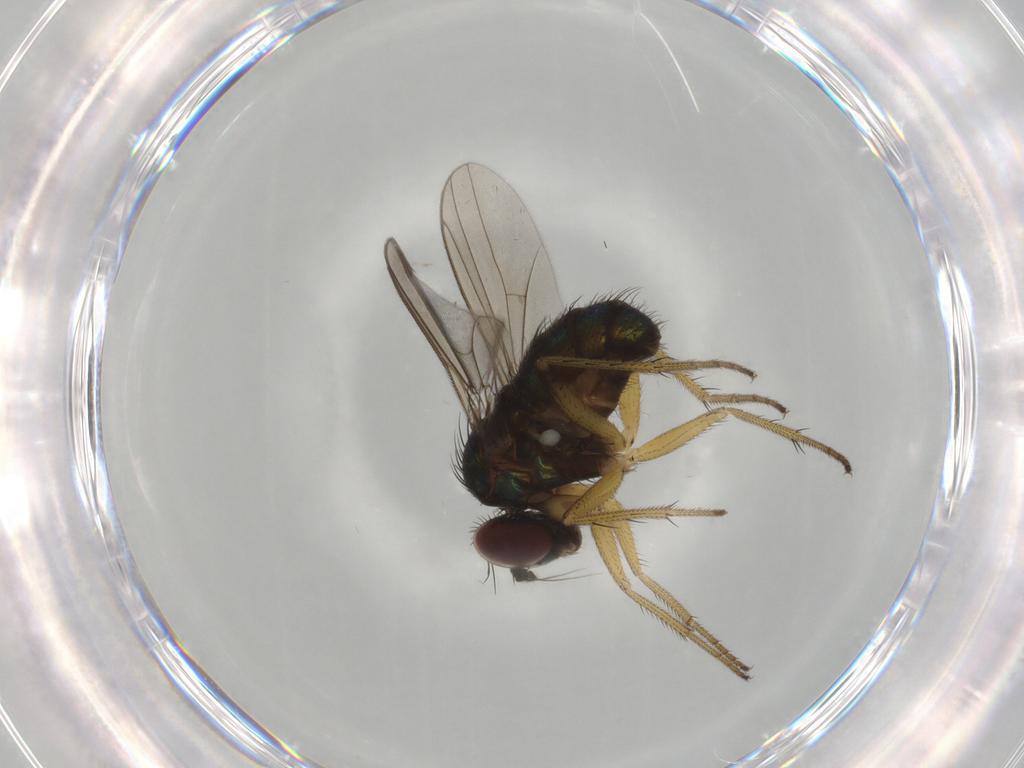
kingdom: Animalia
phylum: Arthropoda
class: Insecta
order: Diptera
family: Dolichopodidae
